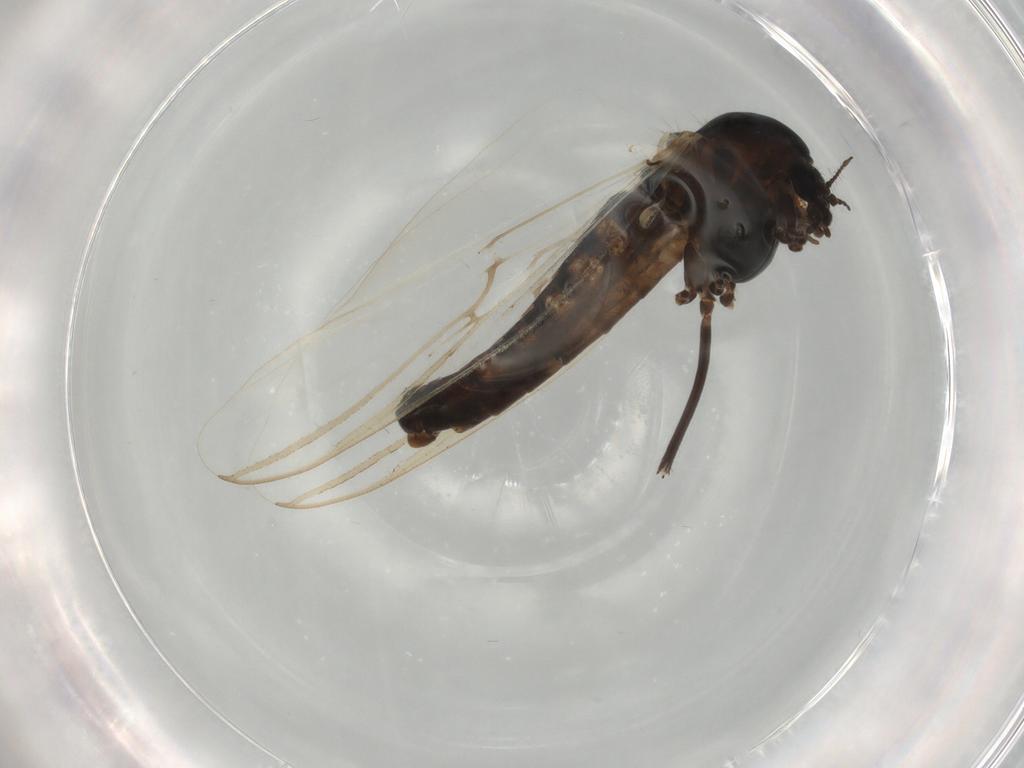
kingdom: Animalia
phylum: Arthropoda
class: Insecta
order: Diptera
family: Chironomidae
